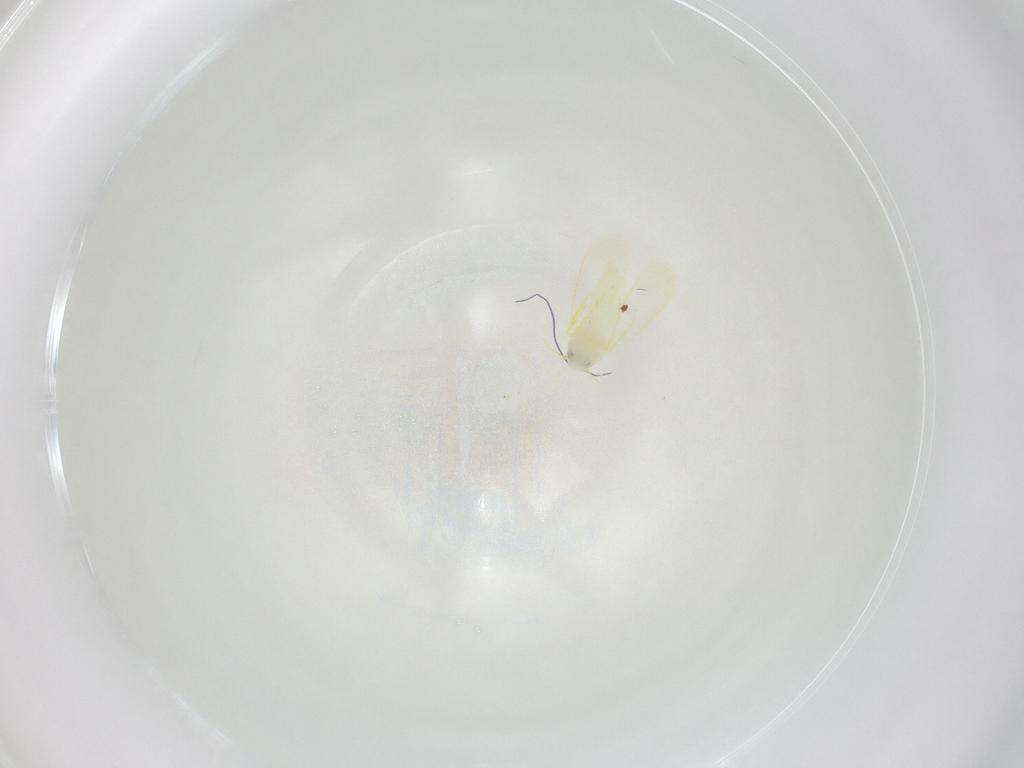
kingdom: Animalia
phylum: Arthropoda
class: Insecta
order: Hemiptera
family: Aleyrodidae
